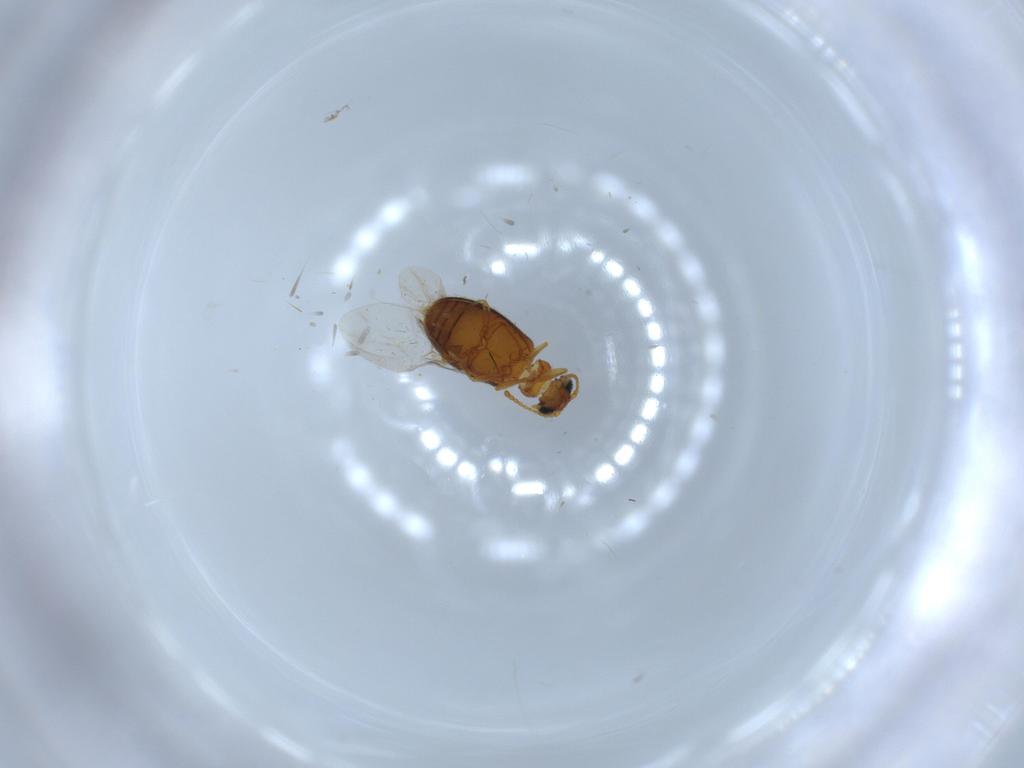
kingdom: Animalia
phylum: Arthropoda
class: Insecta
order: Coleoptera
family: Aderidae
